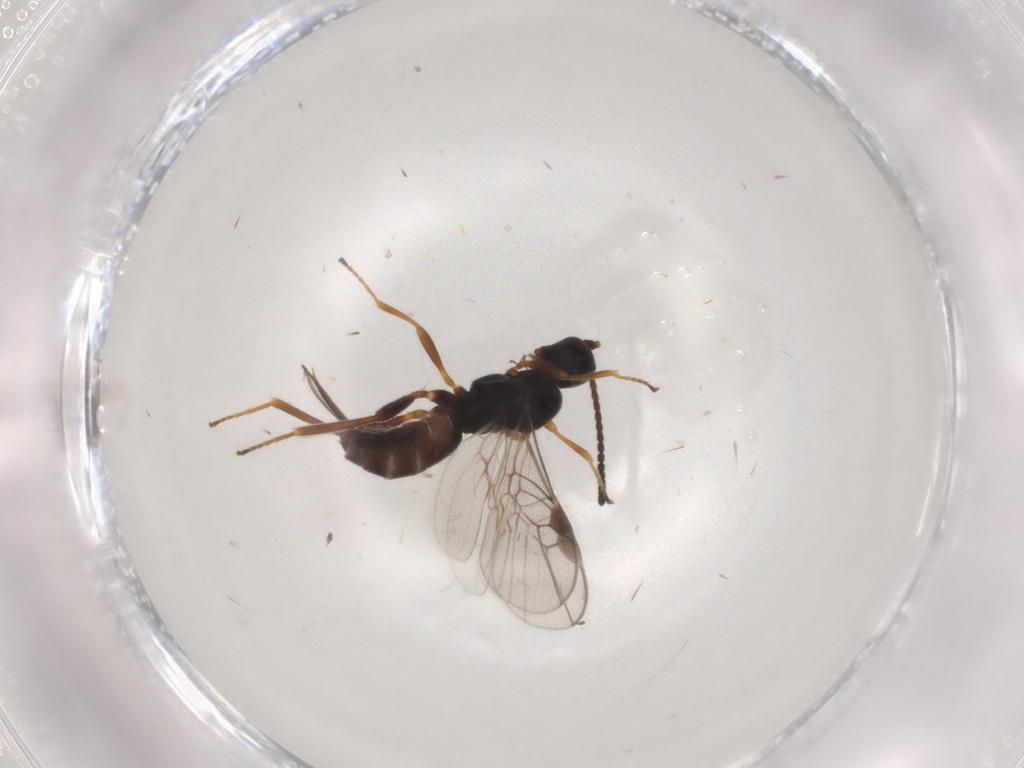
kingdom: Animalia
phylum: Arthropoda
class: Insecta
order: Hymenoptera
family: Braconidae
